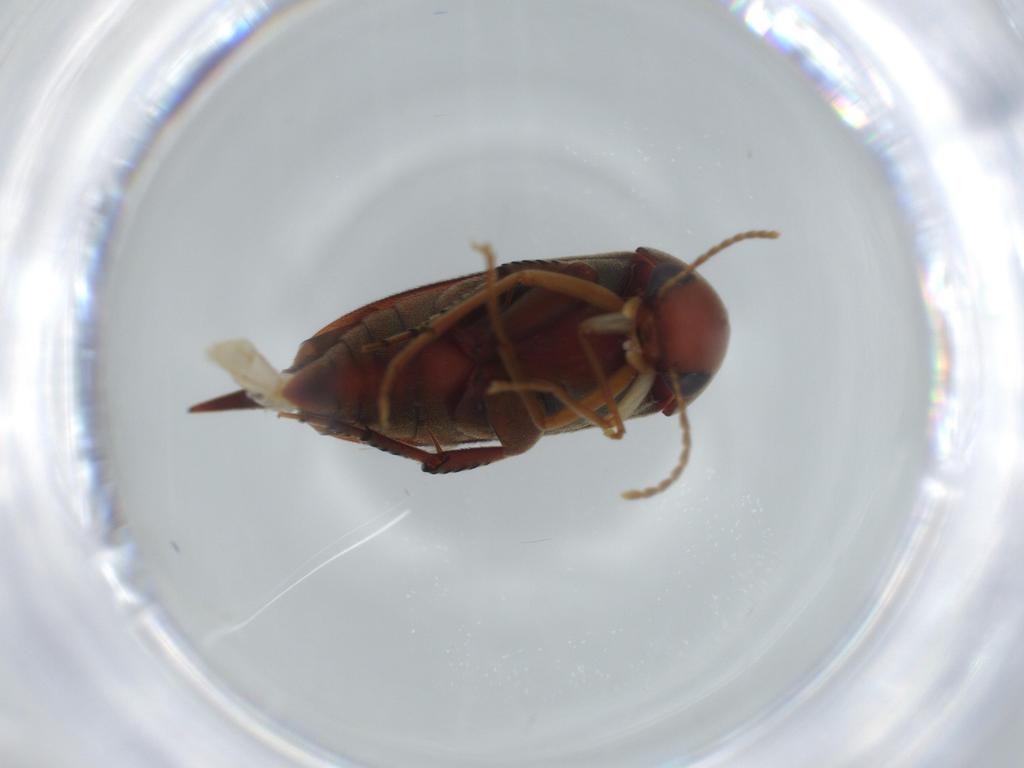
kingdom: Animalia
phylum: Arthropoda
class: Insecta
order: Coleoptera
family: Mordellidae
